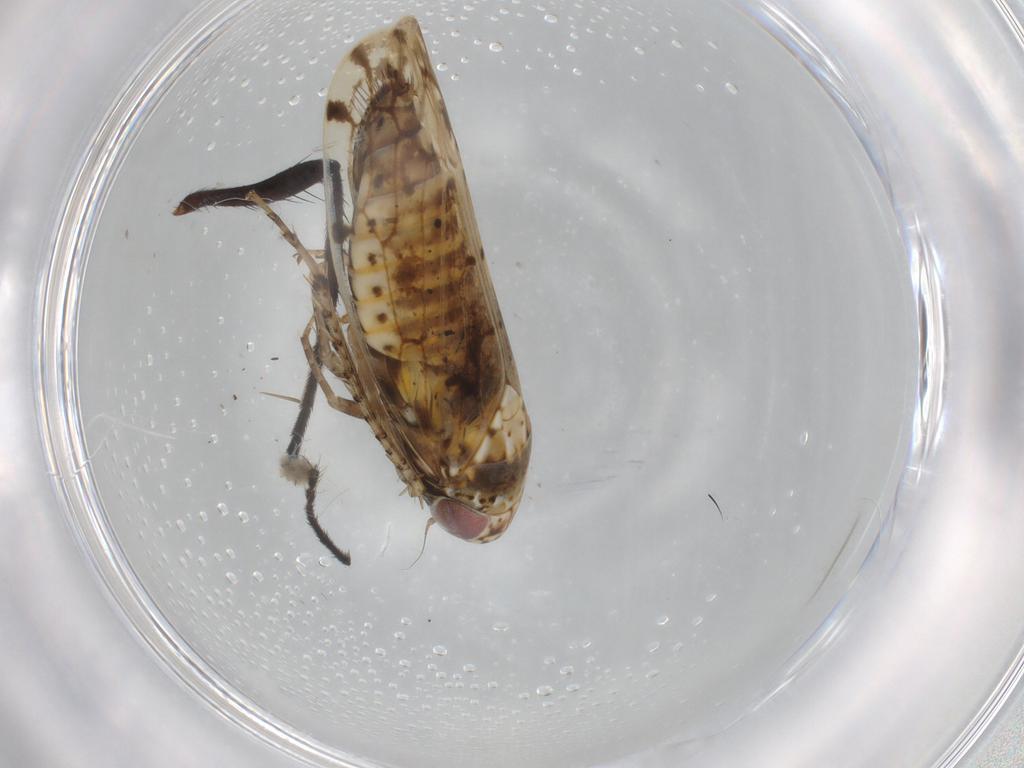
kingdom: Animalia
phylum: Arthropoda
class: Insecta
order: Hemiptera
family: Cicadellidae
